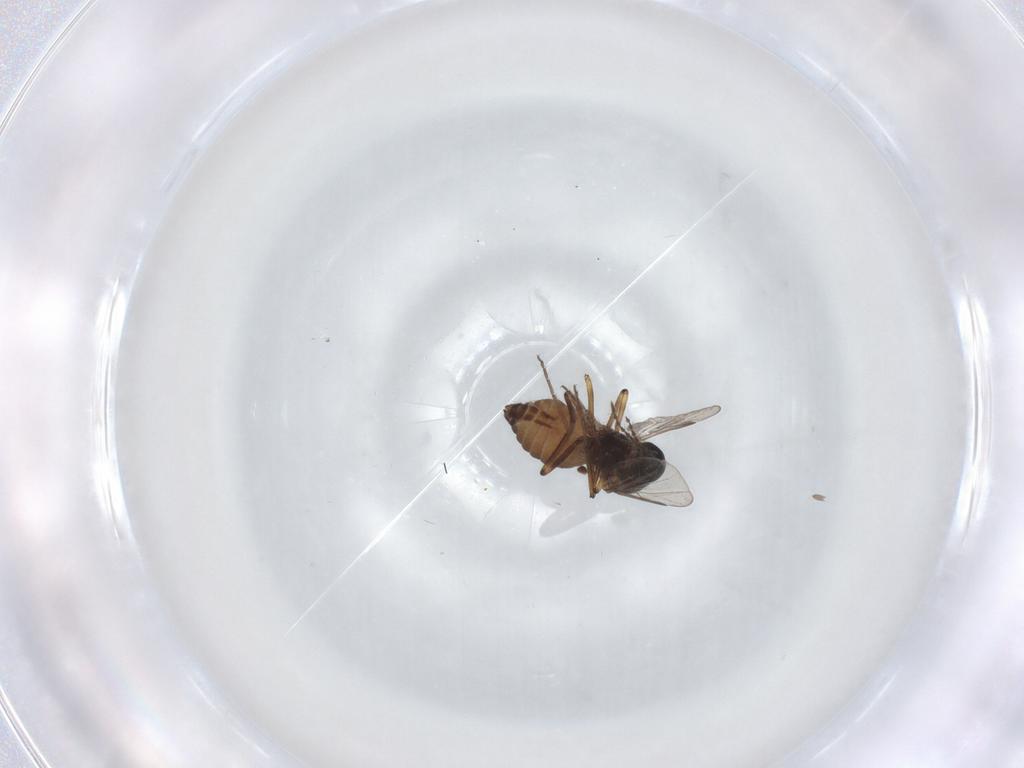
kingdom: Animalia
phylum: Arthropoda
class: Insecta
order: Diptera
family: Ceratopogonidae
